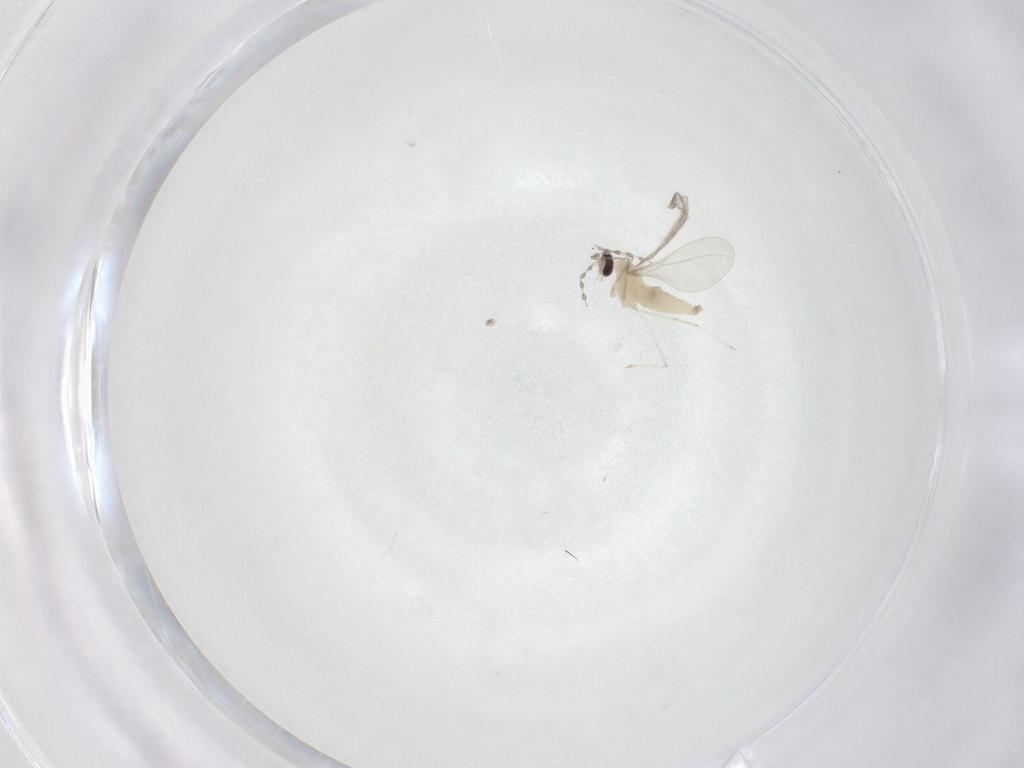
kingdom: Animalia
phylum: Arthropoda
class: Insecta
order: Diptera
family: Cecidomyiidae
